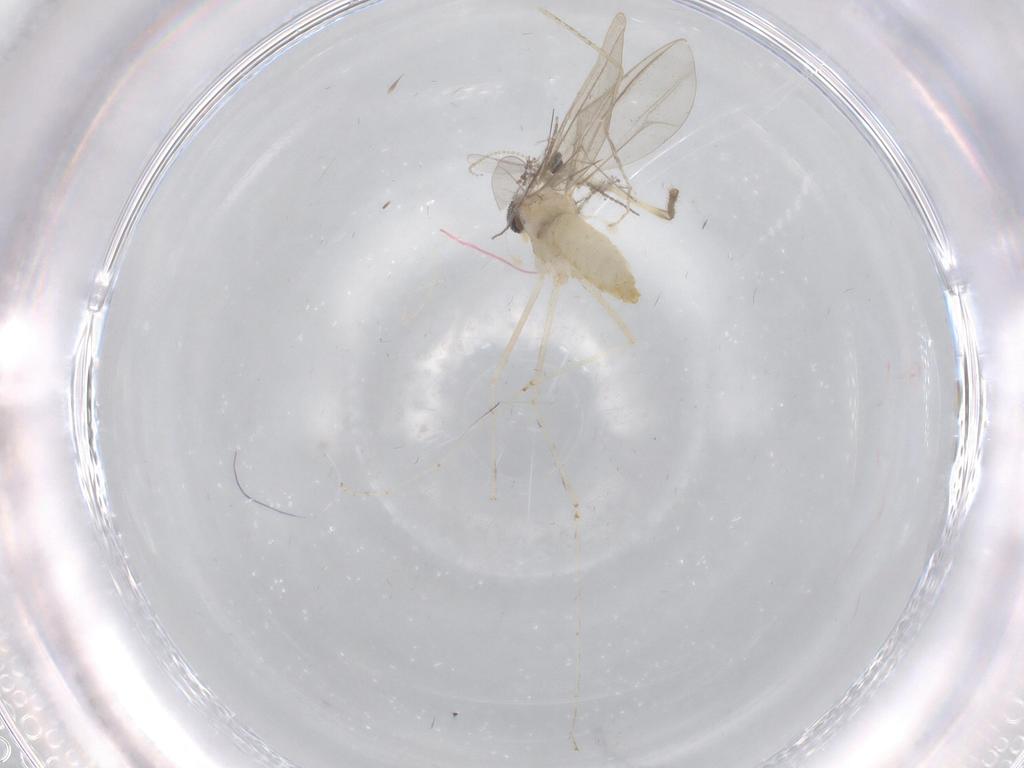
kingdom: Animalia
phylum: Arthropoda
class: Insecta
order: Diptera
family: Cecidomyiidae
